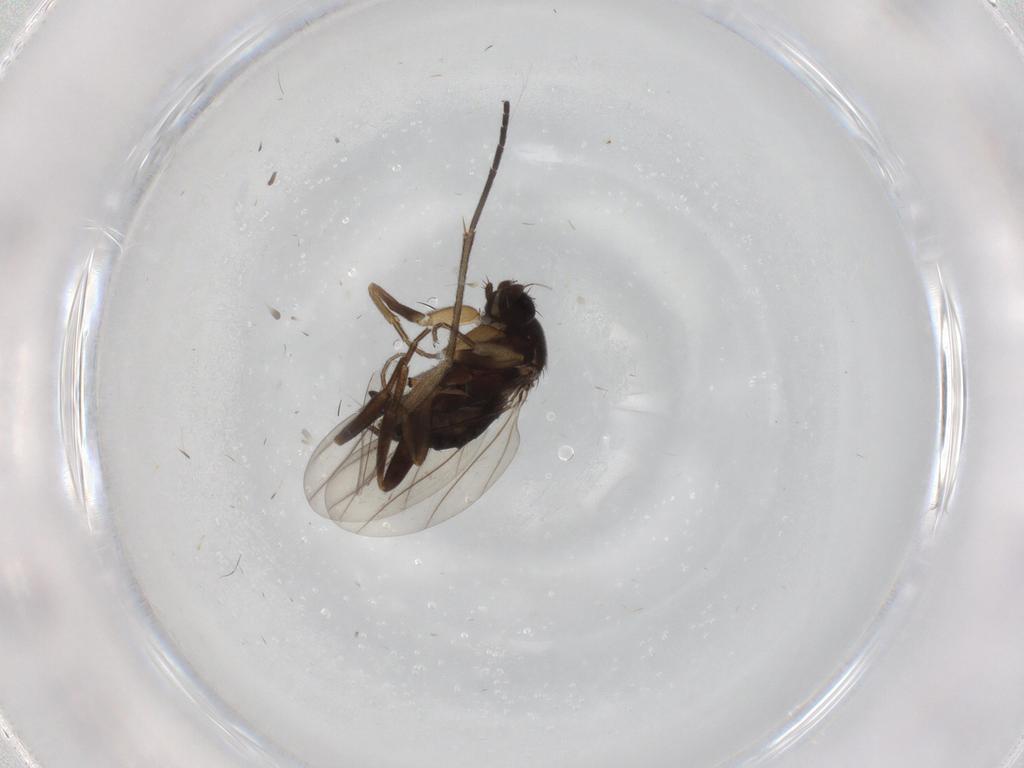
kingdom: Animalia
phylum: Arthropoda
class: Insecta
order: Diptera
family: Phoridae
